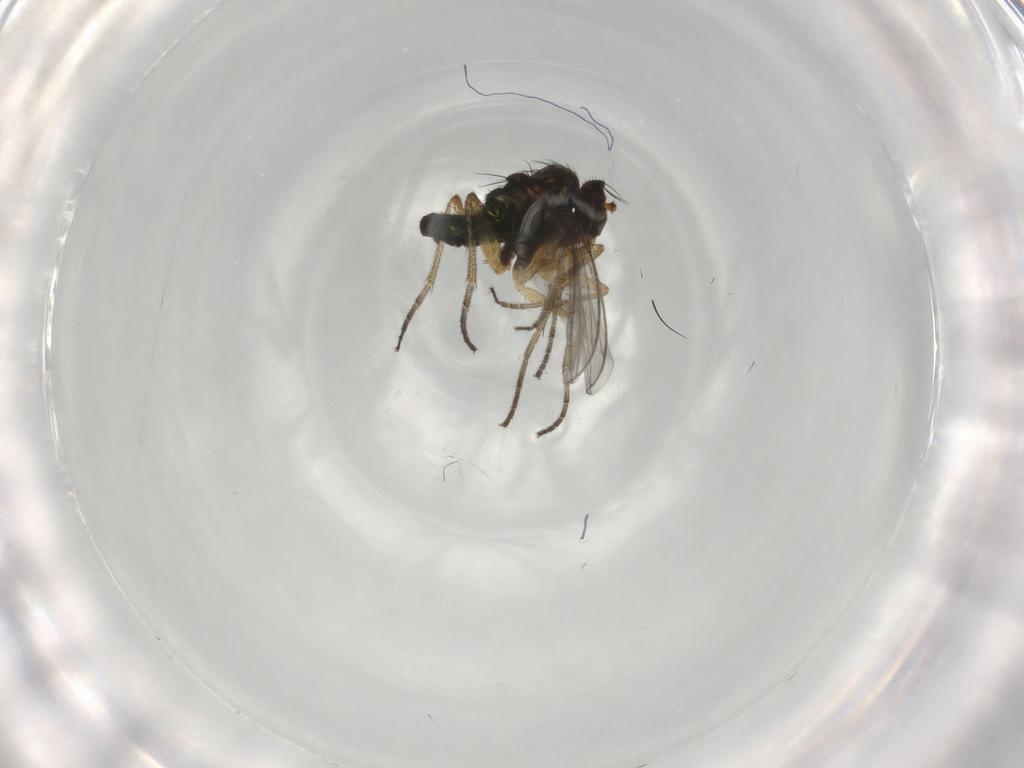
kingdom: Animalia
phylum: Arthropoda
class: Insecta
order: Diptera
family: Dolichopodidae
